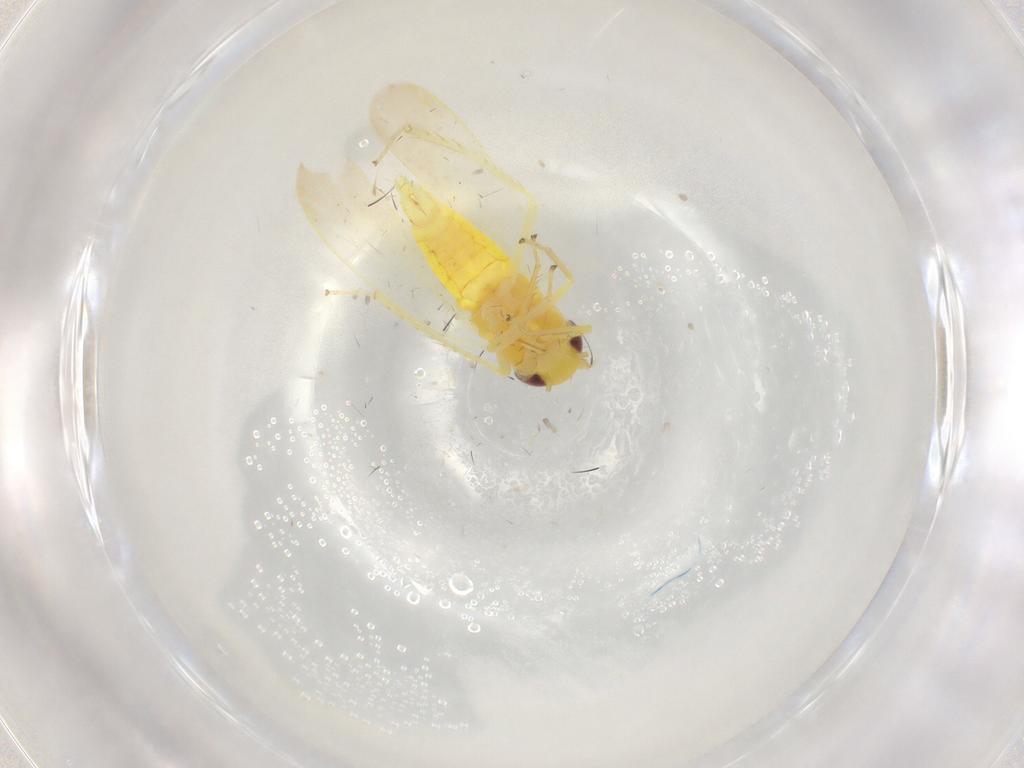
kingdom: Animalia
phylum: Arthropoda
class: Insecta
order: Hemiptera
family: Cicadellidae
